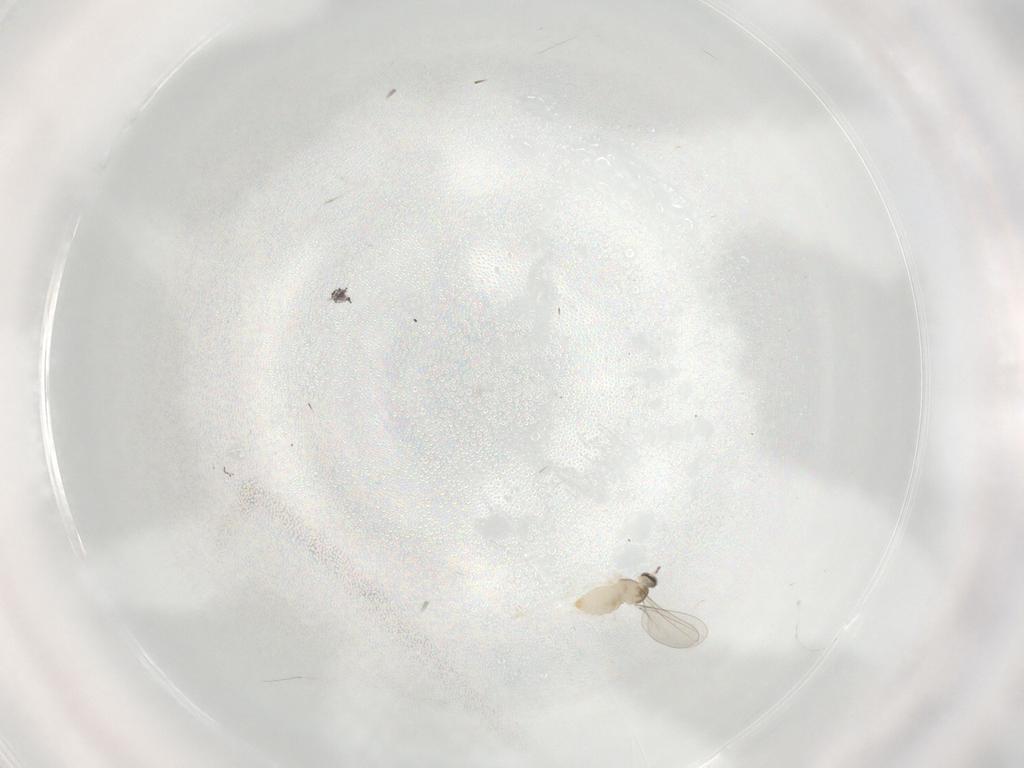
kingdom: Animalia
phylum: Arthropoda
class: Insecta
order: Diptera
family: Cecidomyiidae
